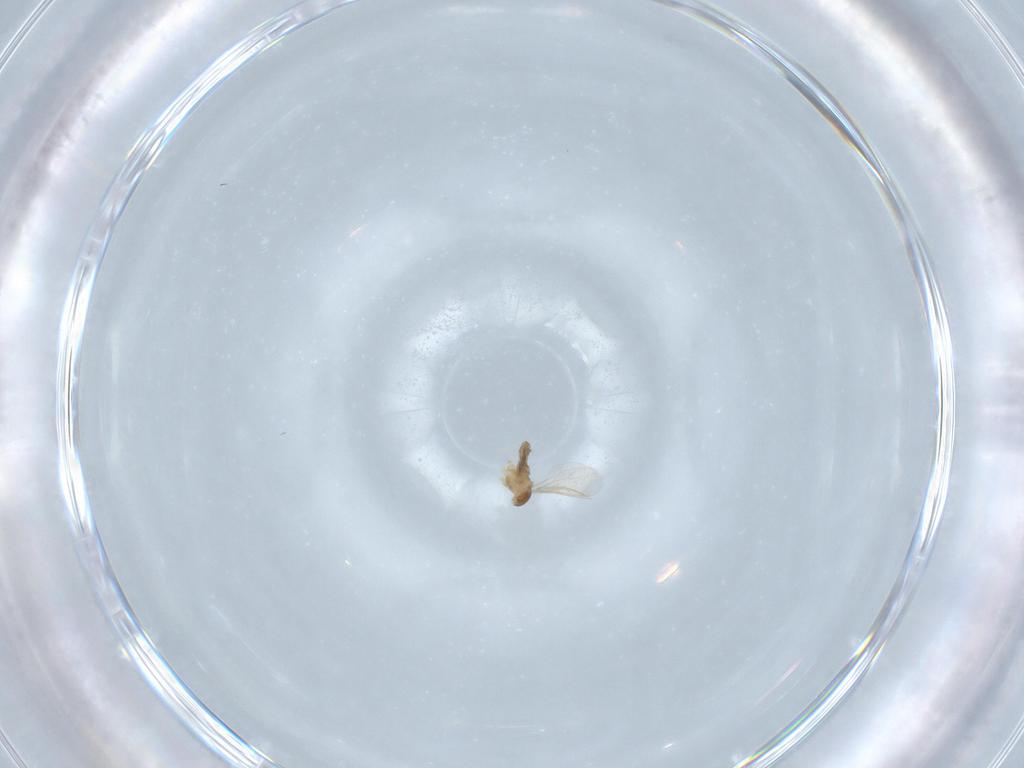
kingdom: Animalia
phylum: Arthropoda
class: Insecta
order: Diptera
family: Cecidomyiidae
